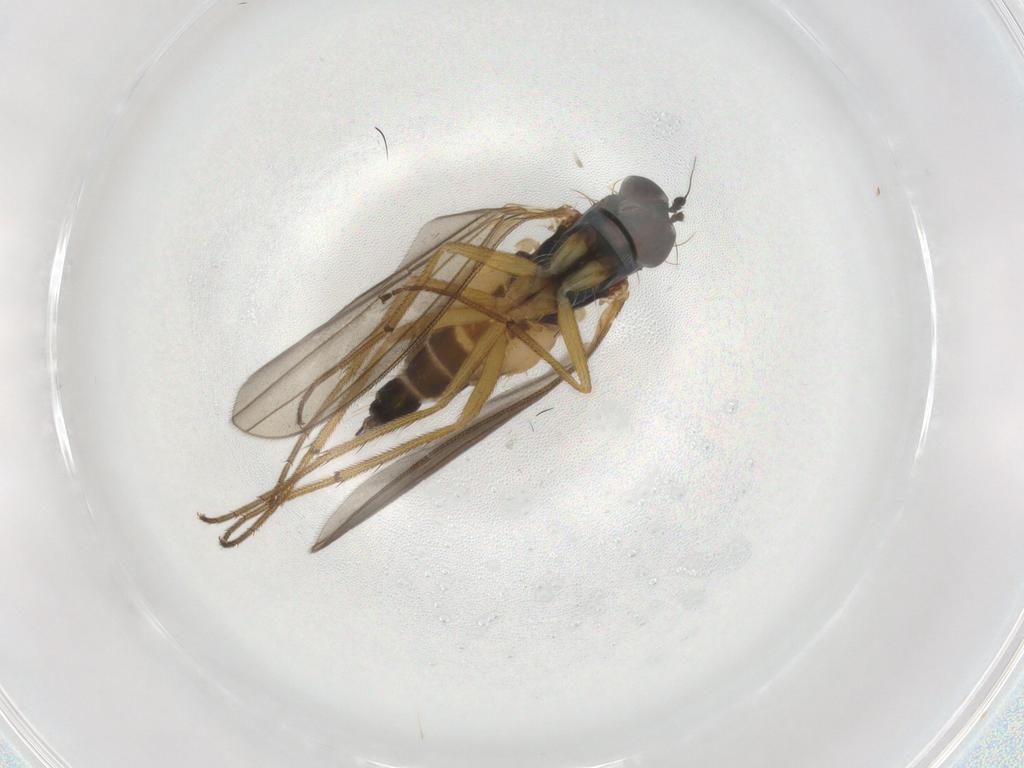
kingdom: Animalia
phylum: Arthropoda
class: Insecta
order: Diptera
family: Dolichopodidae
